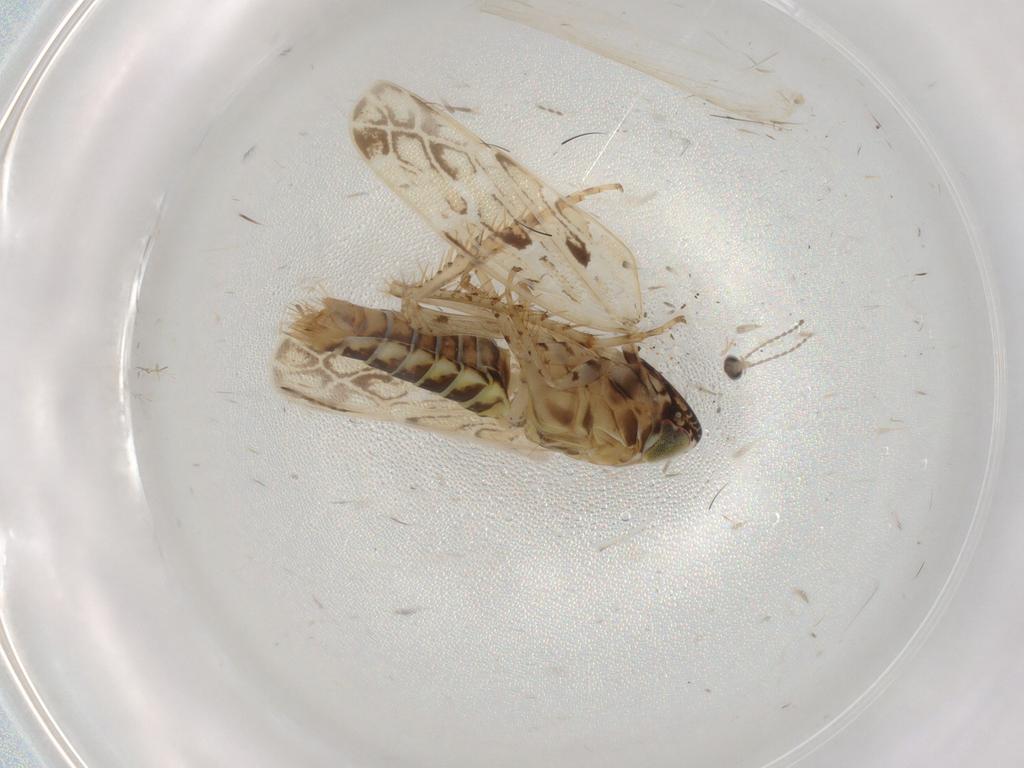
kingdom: Animalia
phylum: Arthropoda
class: Insecta
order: Hemiptera
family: Cicadellidae
